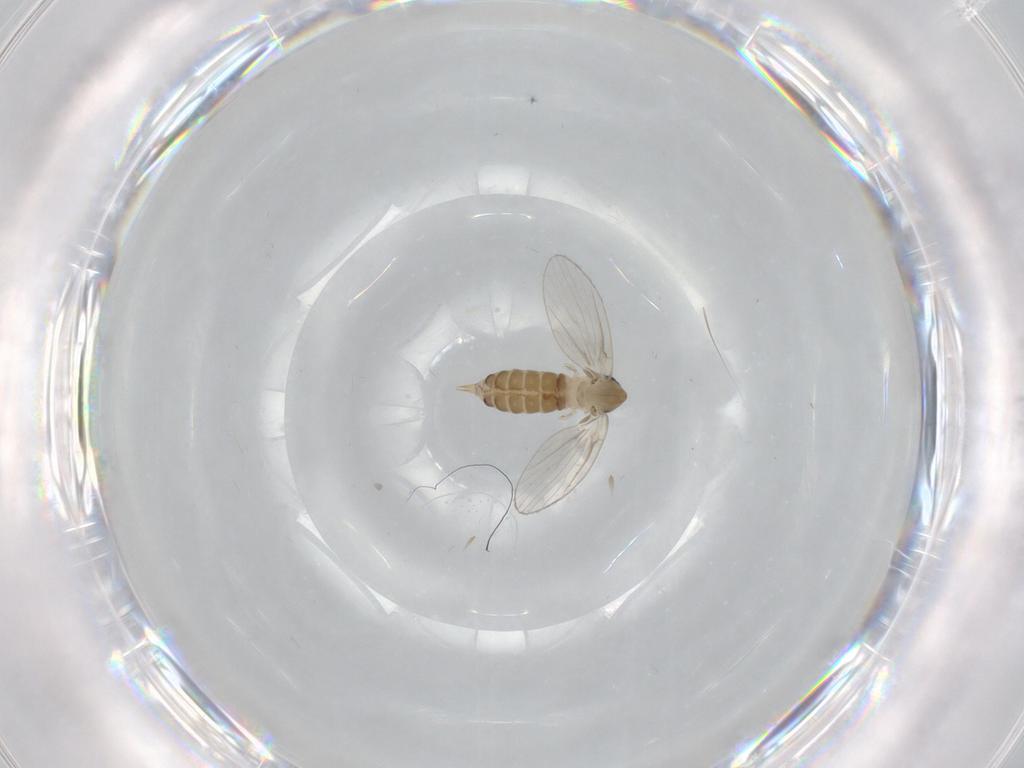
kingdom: Animalia
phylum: Arthropoda
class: Insecta
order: Diptera
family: Psychodidae
